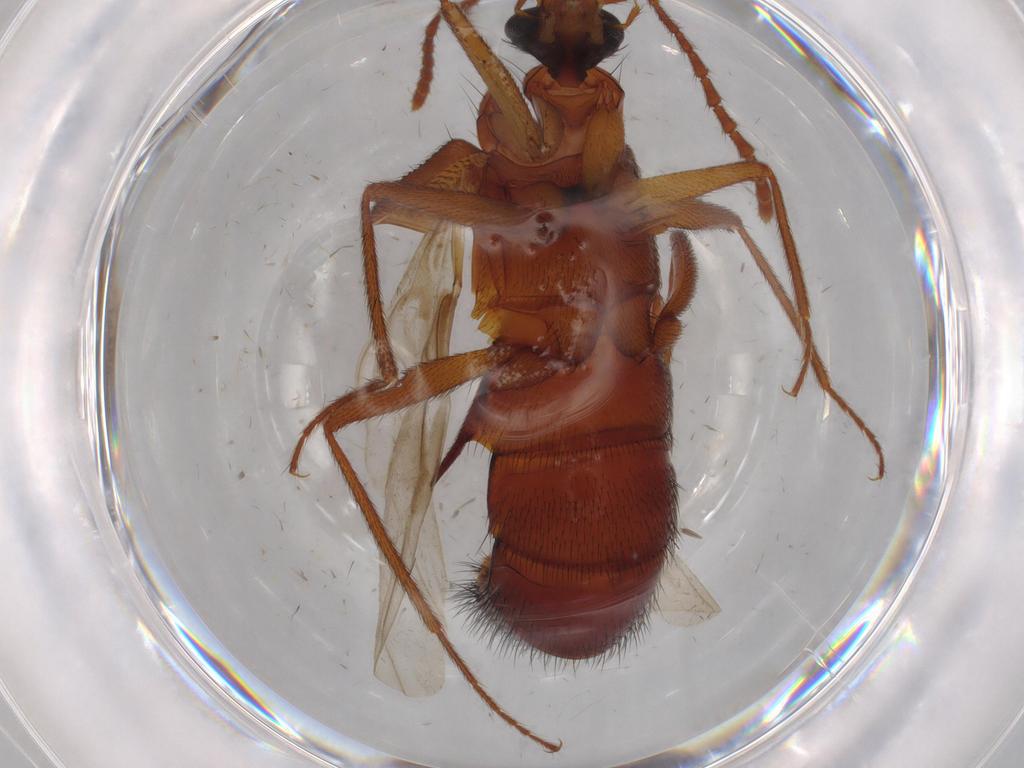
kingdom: Animalia
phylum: Arthropoda
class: Insecta
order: Coleoptera
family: Staphylinidae
